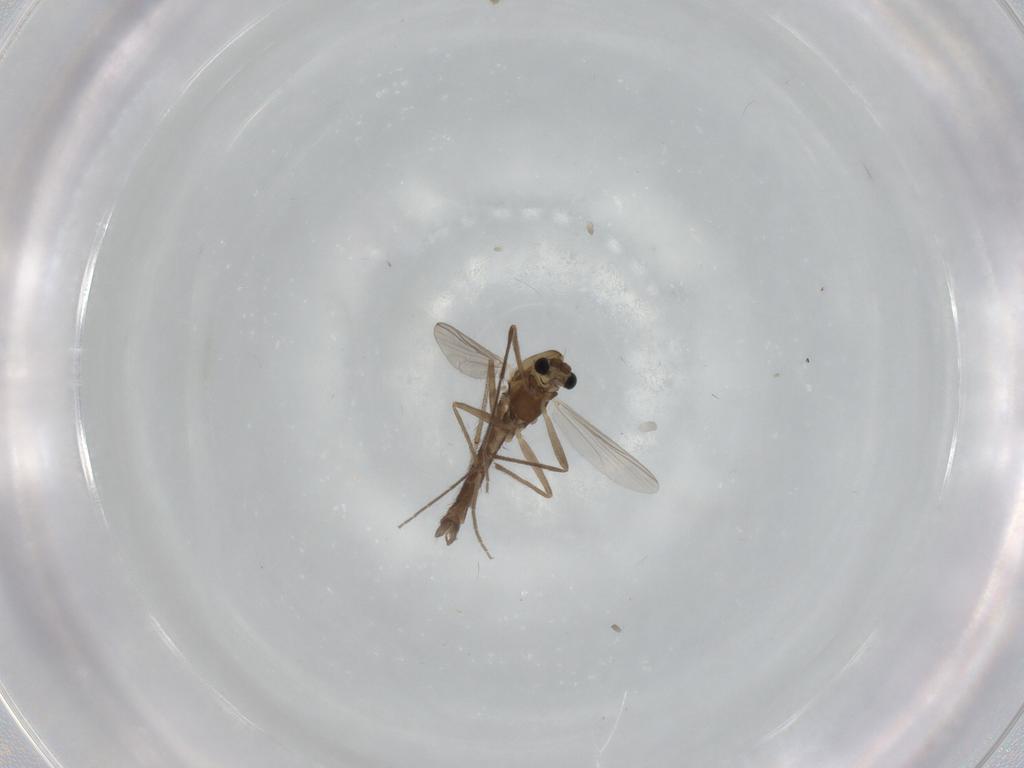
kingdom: Animalia
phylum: Arthropoda
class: Insecta
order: Diptera
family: Chironomidae
